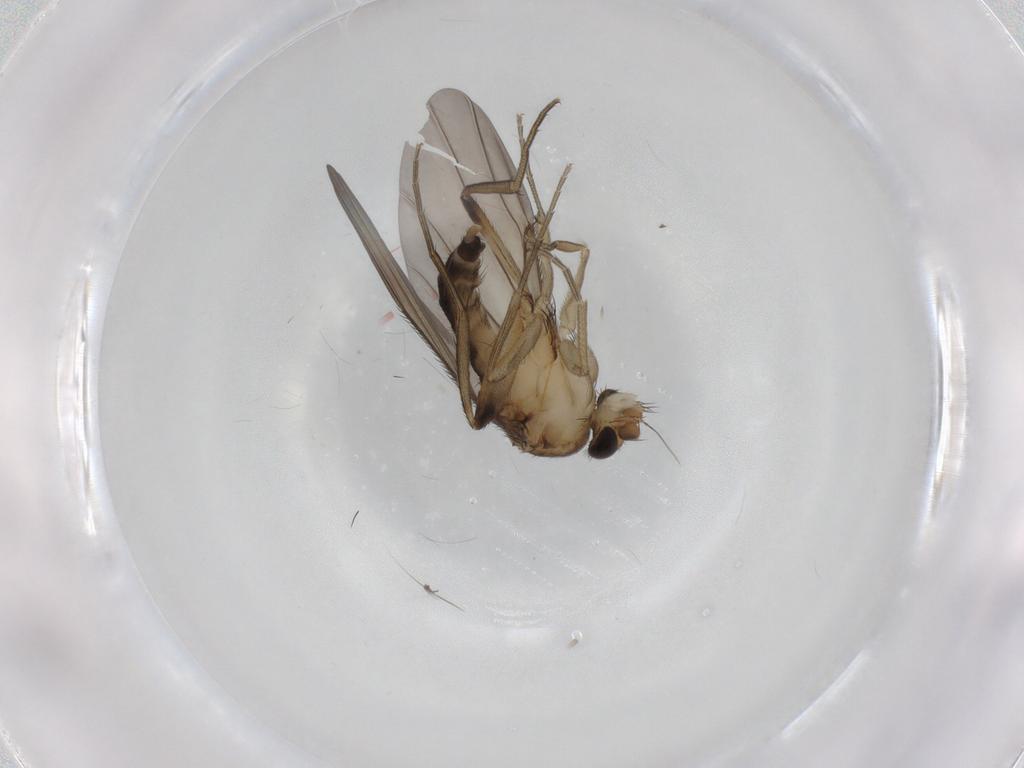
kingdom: Animalia
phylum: Arthropoda
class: Insecta
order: Diptera
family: Phoridae
